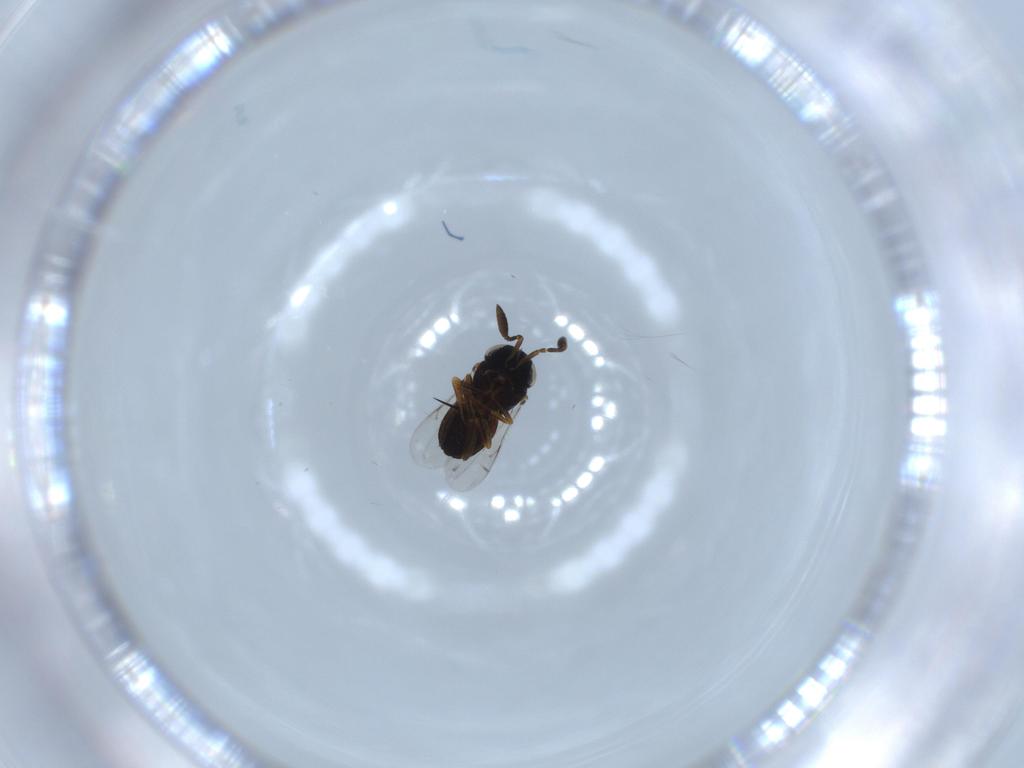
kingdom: Animalia
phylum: Arthropoda
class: Insecta
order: Hymenoptera
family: Scelionidae
